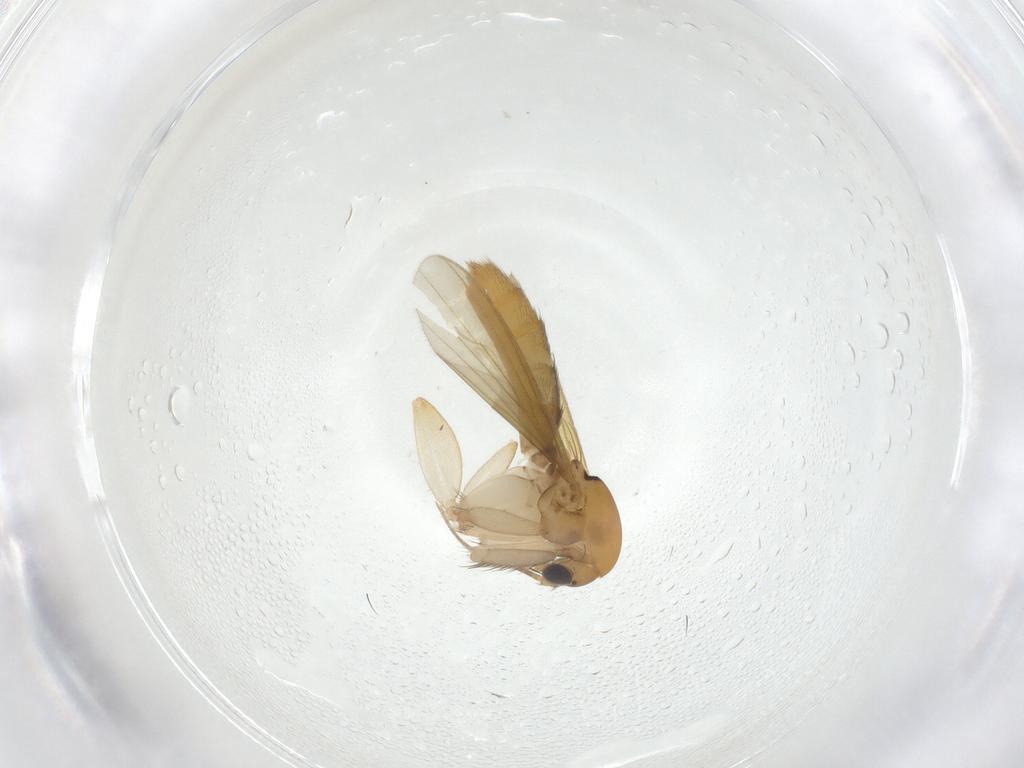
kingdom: Animalia
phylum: Arthropoda
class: Insecta
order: Diptera
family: Mycetophilidae
